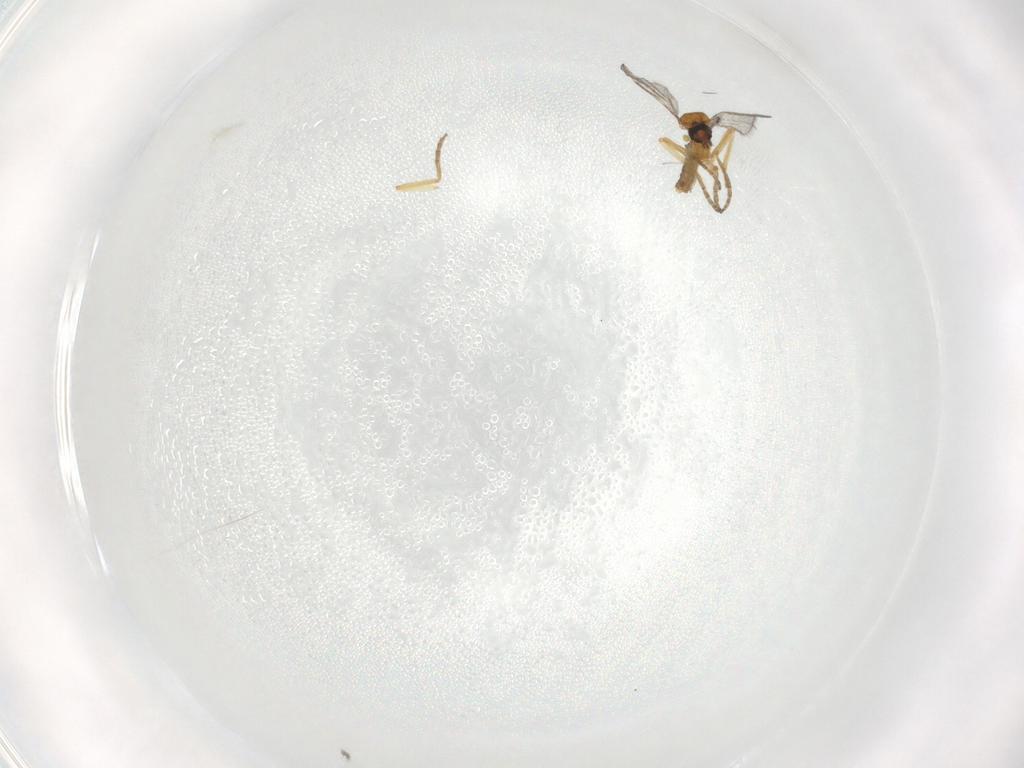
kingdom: Animalia
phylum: Arthropoda
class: Insecta
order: Diptera
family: Ceratopogonidae
